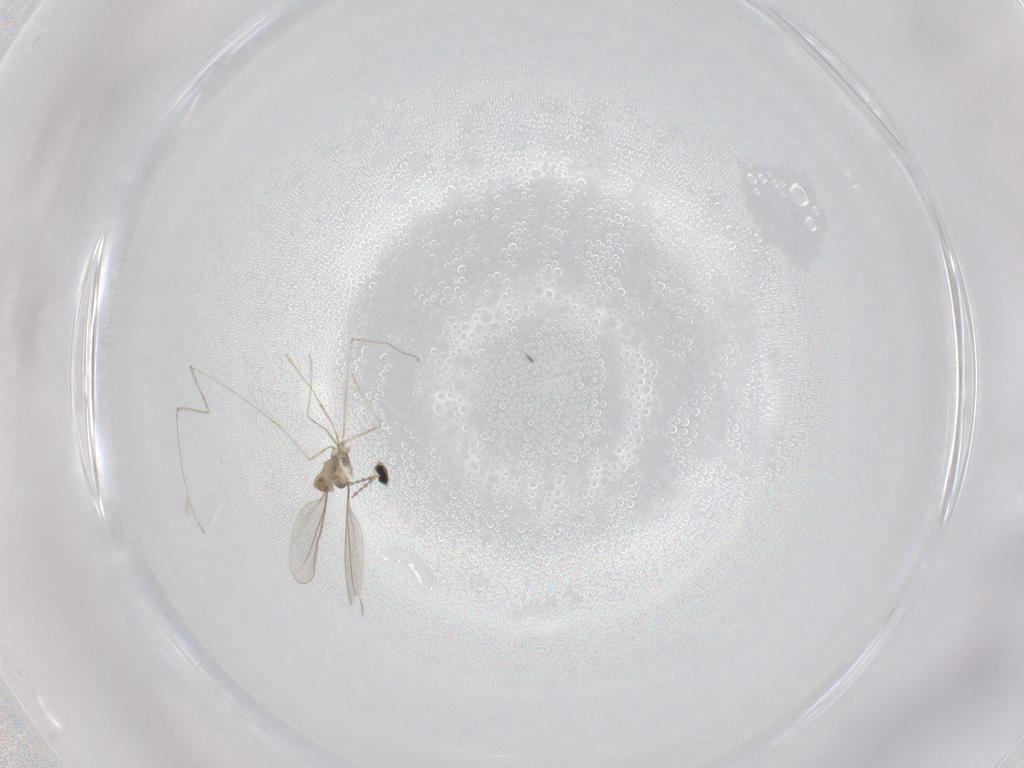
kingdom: Animalia
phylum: Arthropoda
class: Insecta
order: Diptera
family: Cecidomyiidae
